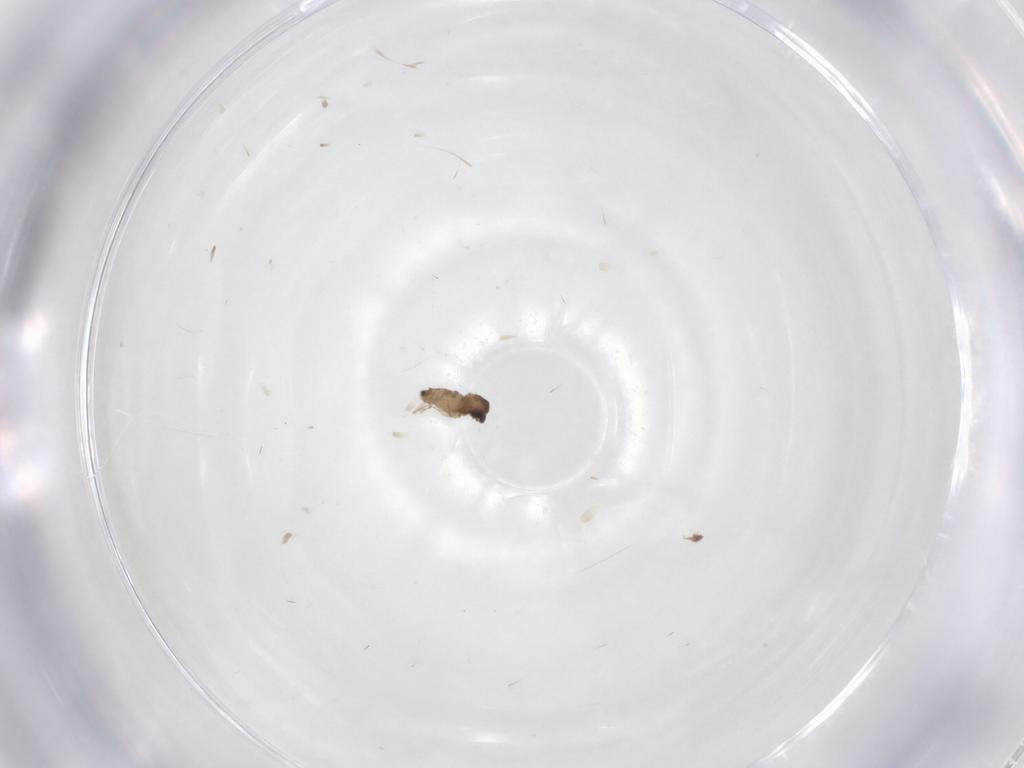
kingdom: Animalia
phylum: Arthropoda
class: Insecta
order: Diptera
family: Cecidomyiidae
